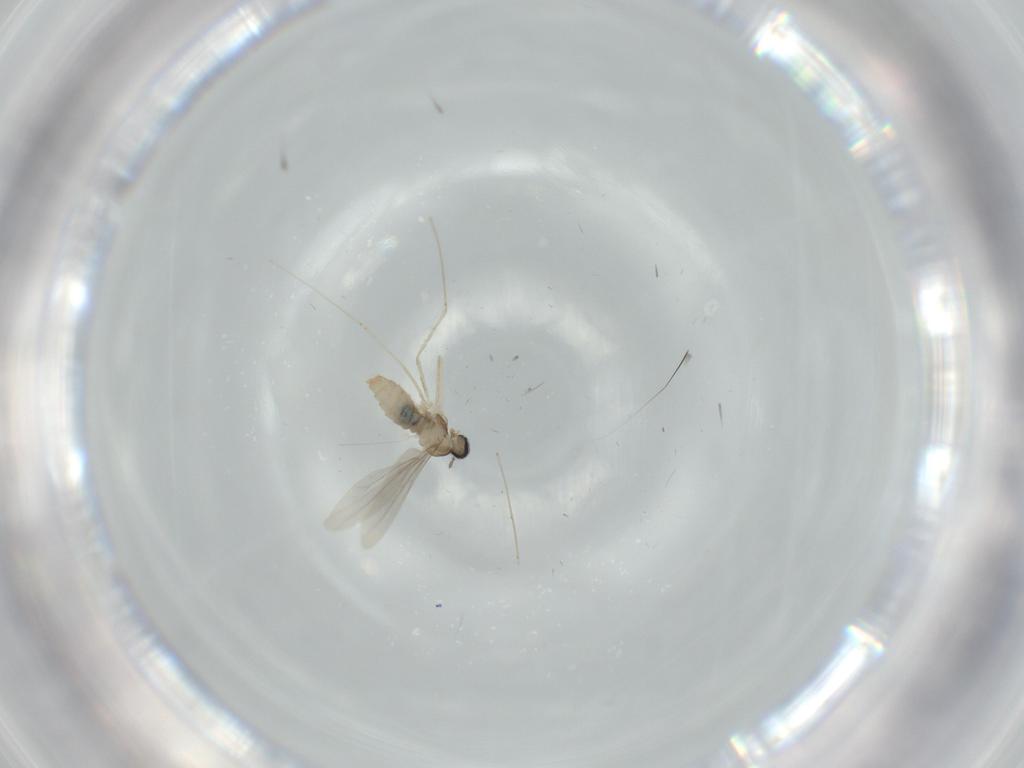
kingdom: Animalia
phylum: Arthropoda
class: Insecta
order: Diptera
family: Cecidomyiidae
